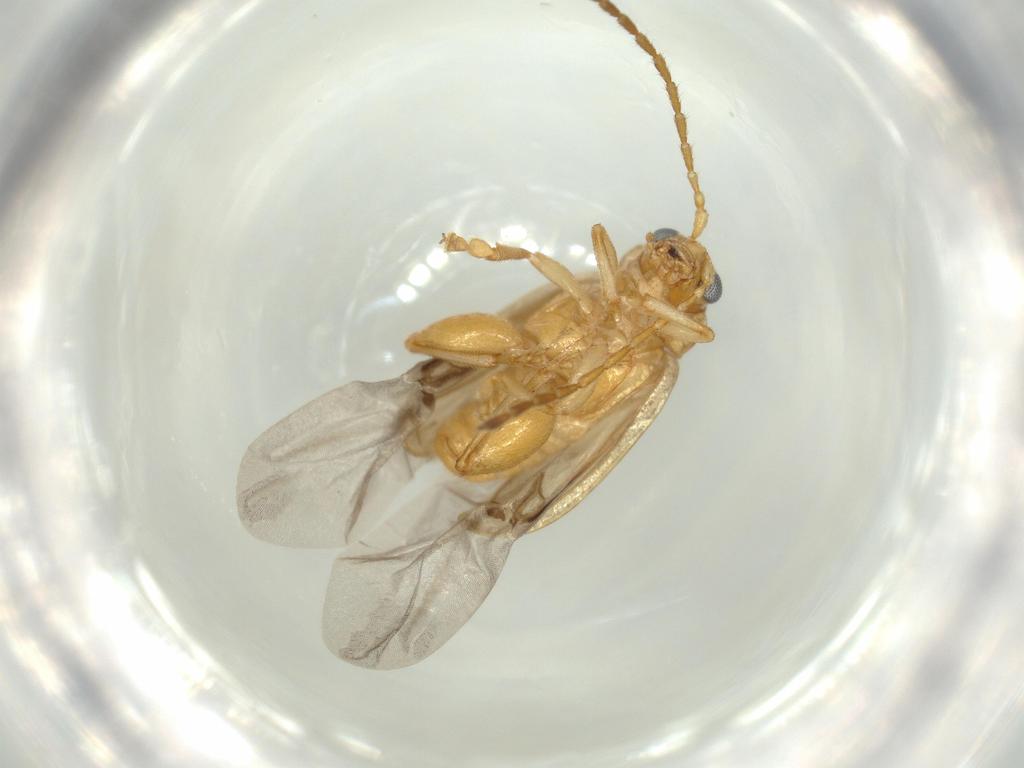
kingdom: Animalia
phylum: Arthropoda
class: Insecta
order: Coleoptera
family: Chrysomelidae
